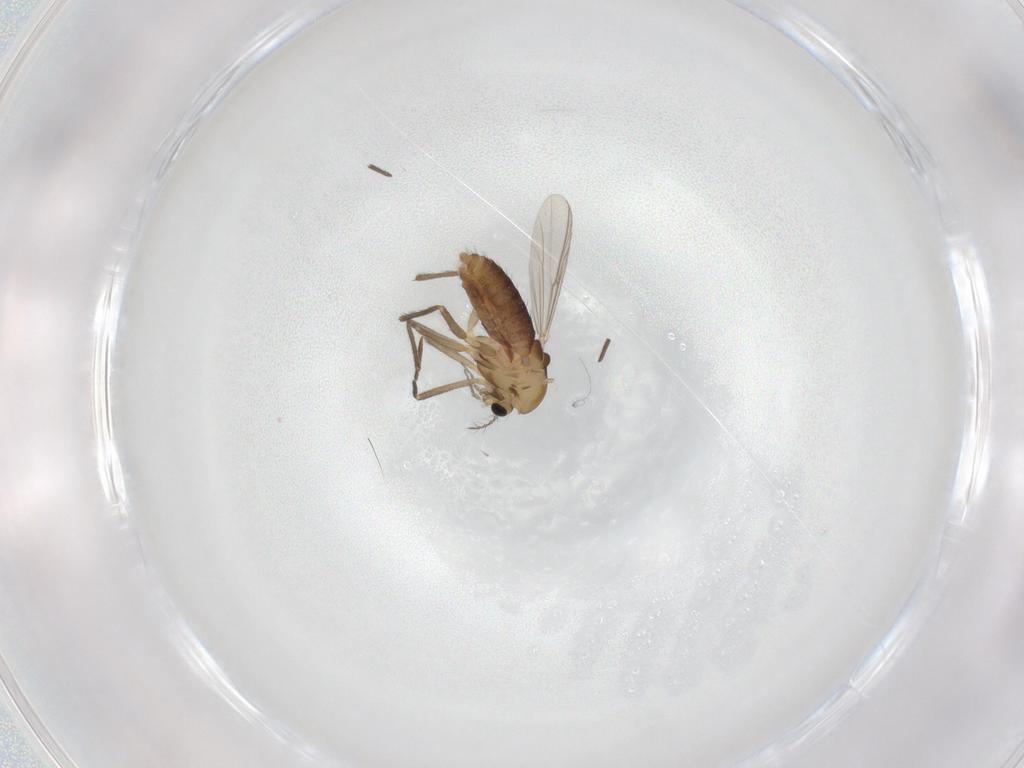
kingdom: Animalia
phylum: Arthropoda
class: Insecta
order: Diptera
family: Chironomidae
